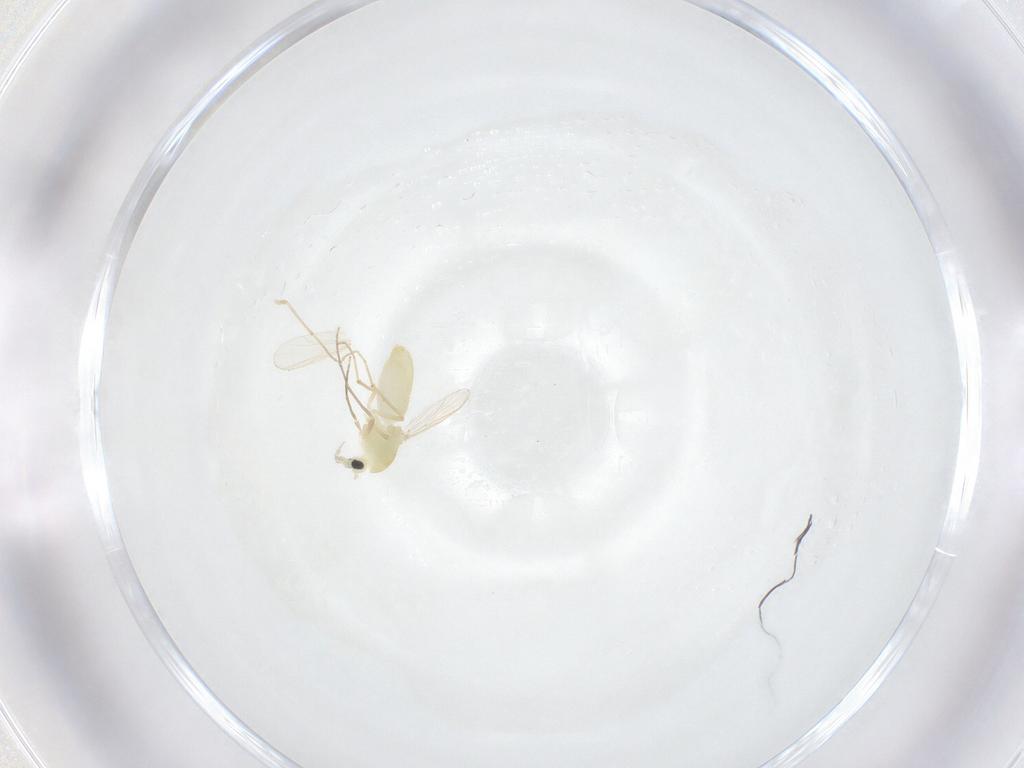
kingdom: Animalia
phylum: Arthropoda
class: Insecta
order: Diptera
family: Chironomidae
